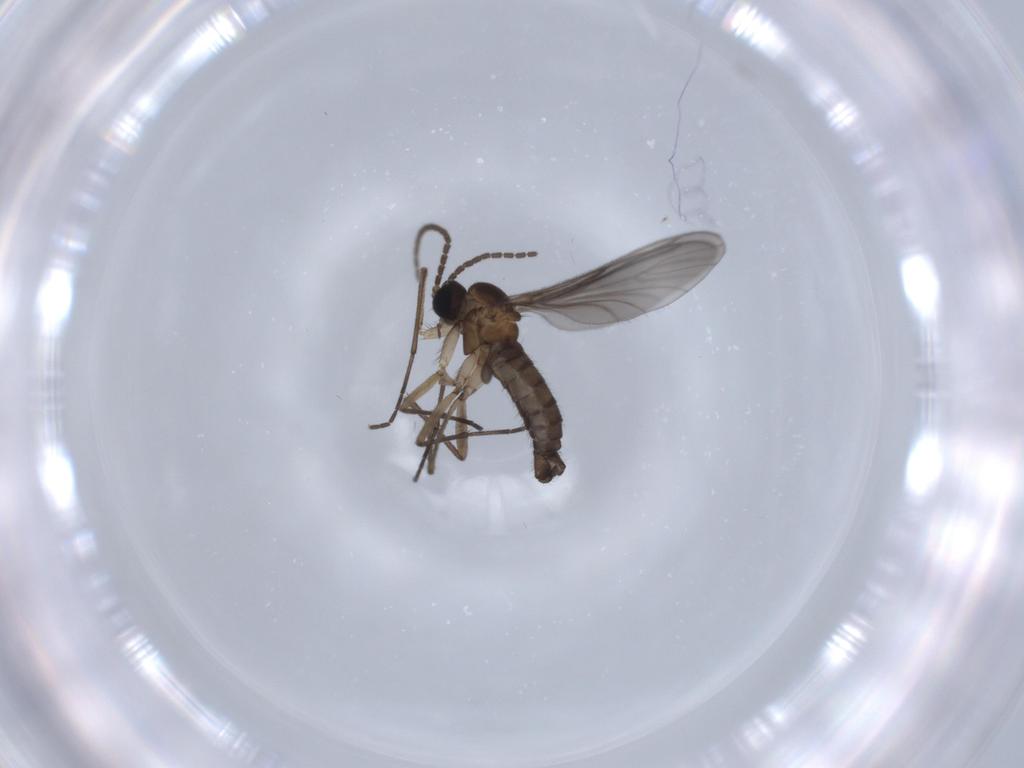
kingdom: Animalia
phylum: Arthropoda
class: Insecta
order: Diptera
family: Sciaridae
